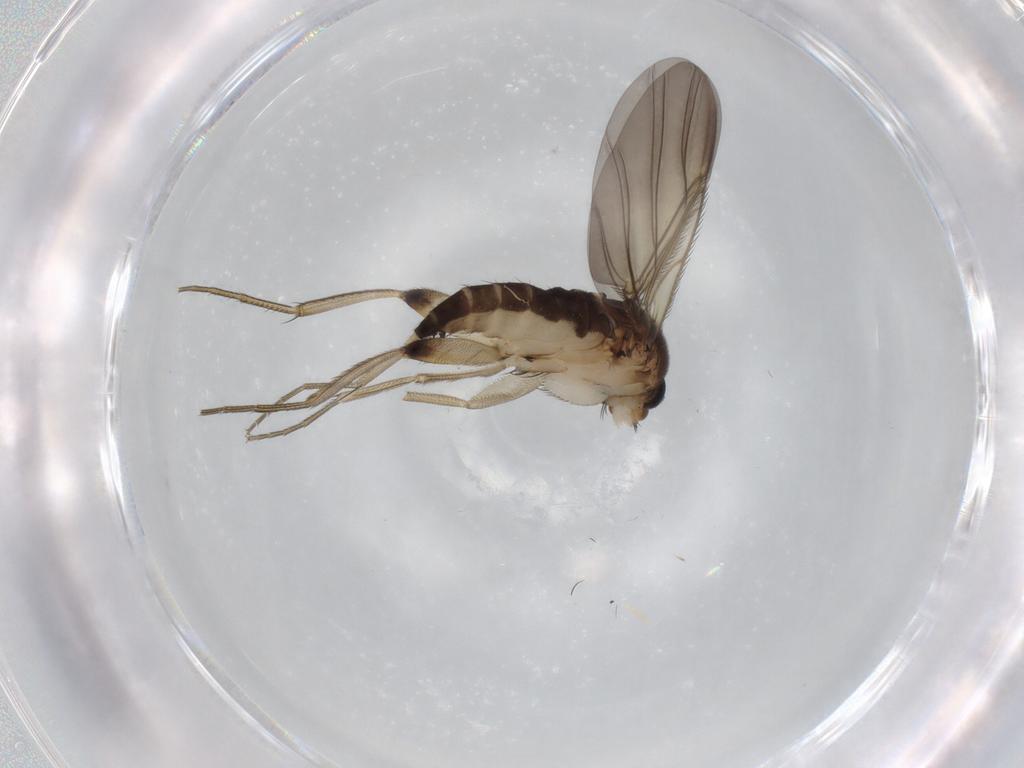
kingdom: Animalia
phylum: Arthropoda
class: Insecta
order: Diptera
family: Phoridae
